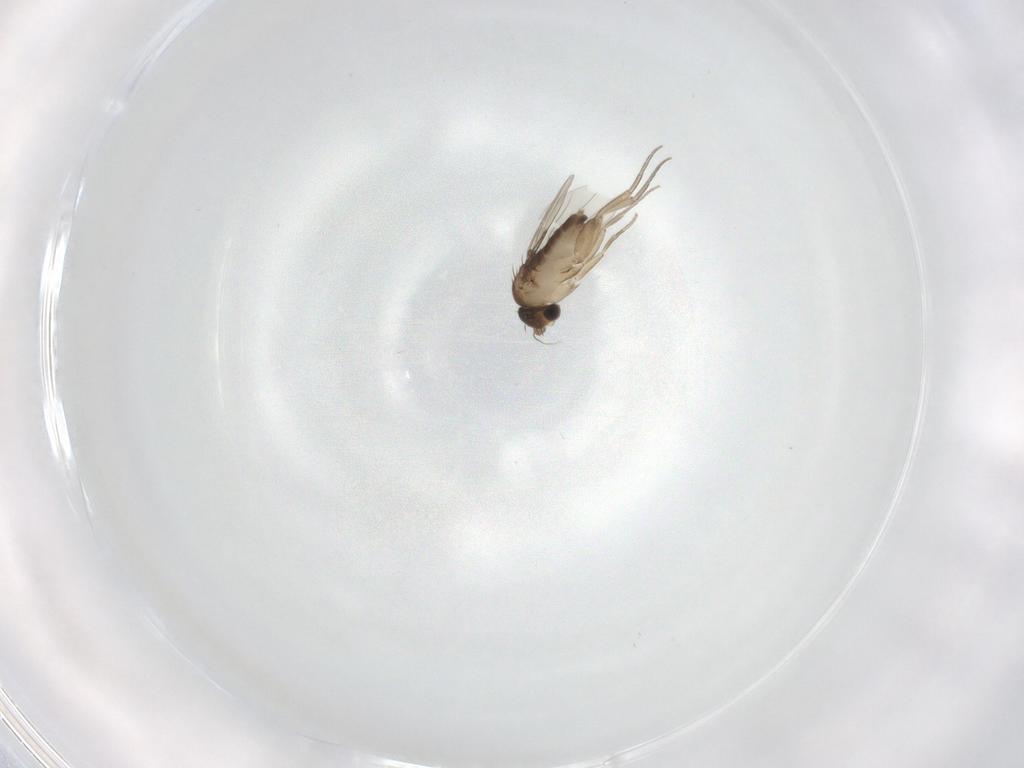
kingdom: Animalia
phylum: Arthropoda
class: Insecta
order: Diptera
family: Phoridae
